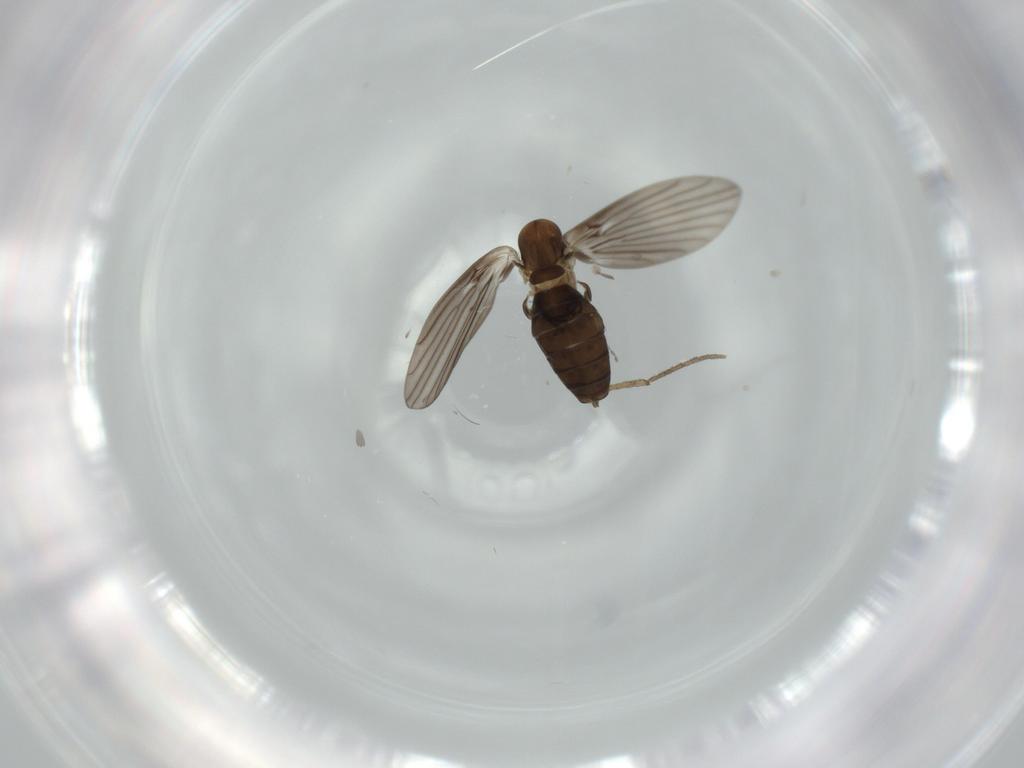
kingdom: Animalia
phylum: Arthropoda
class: Insecta
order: Diptera
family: Psychodidae
